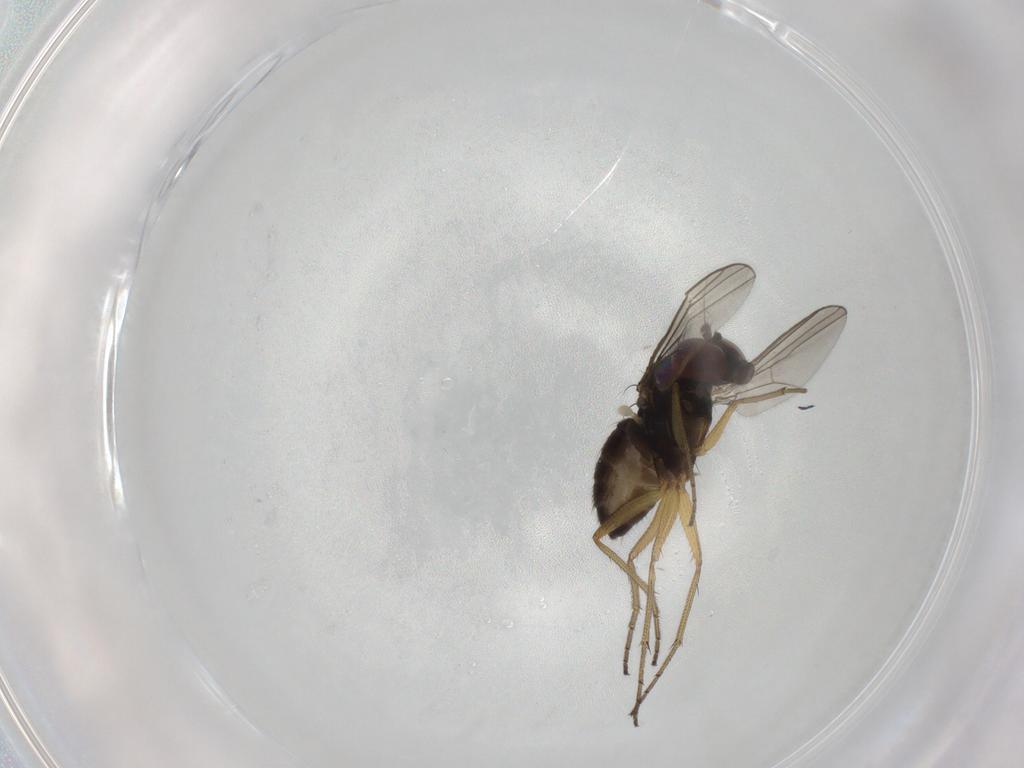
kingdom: Animalia
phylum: Arthropoda
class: Insecta
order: Diptera
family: Dolichopodidae
